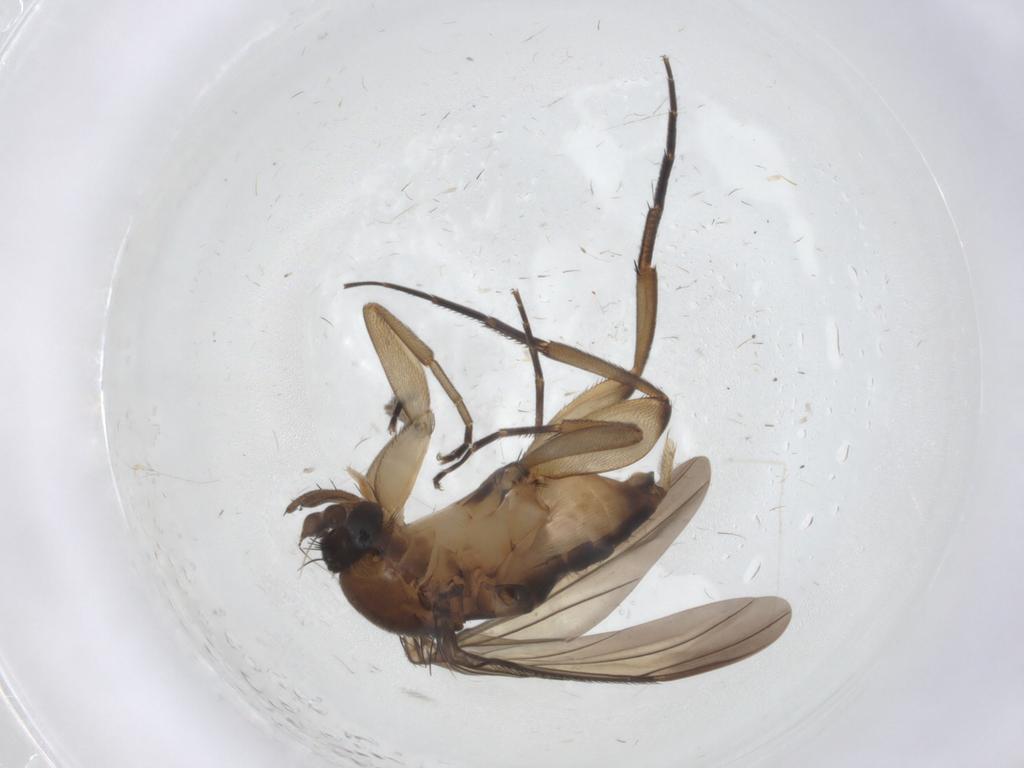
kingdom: Animalia
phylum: Arthropoda
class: Insecta
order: Diptera
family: Phoridae
